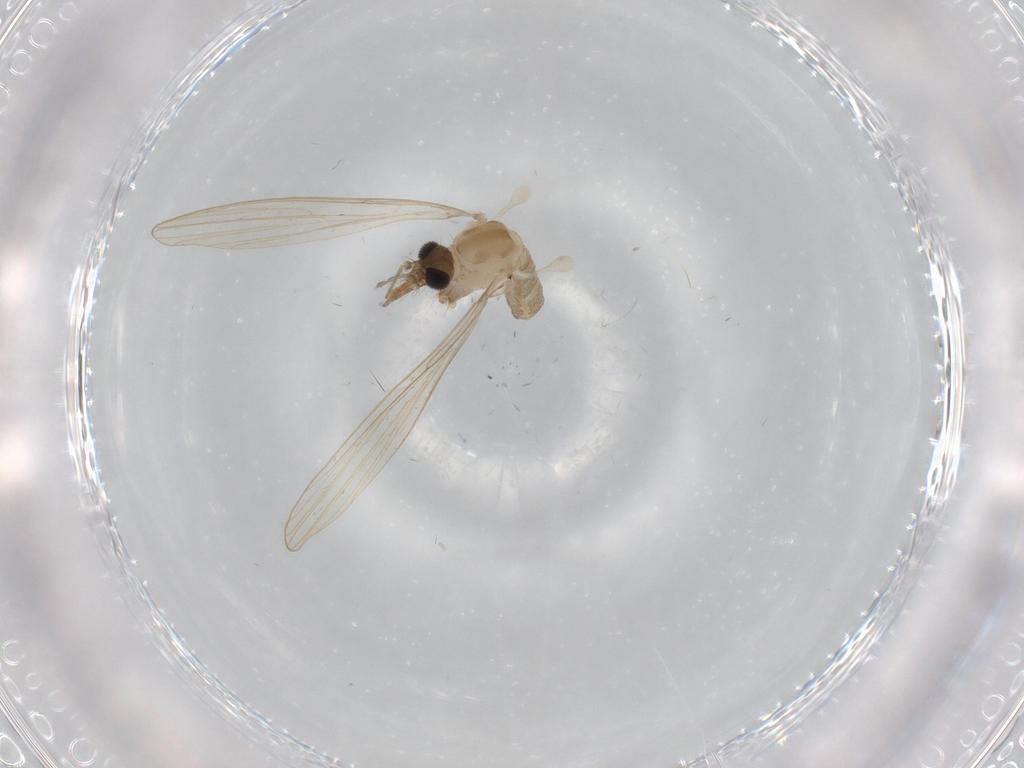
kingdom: Animalia
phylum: Arthropoda
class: Insecta
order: Diptera
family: Psychodidae
